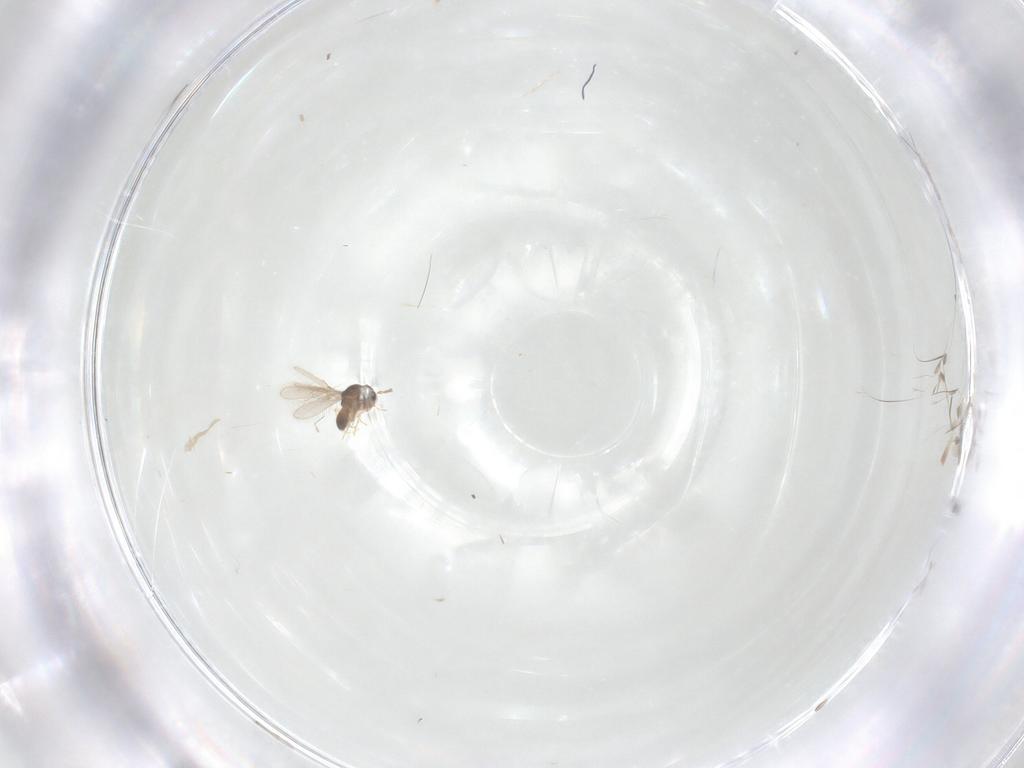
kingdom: Animalia
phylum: Arthropoda
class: Insecta
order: Hymenoptera
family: Scelionidae
